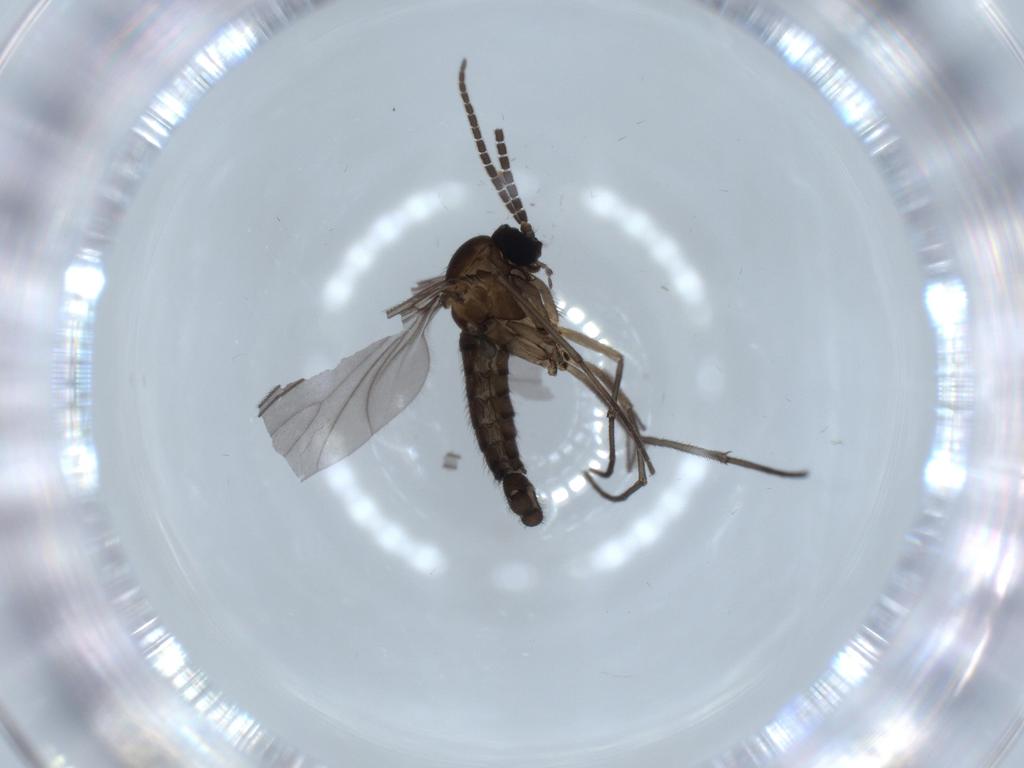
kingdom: Animalia
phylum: Arthropoda
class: Insecta
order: Diptera
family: Sciaridae
